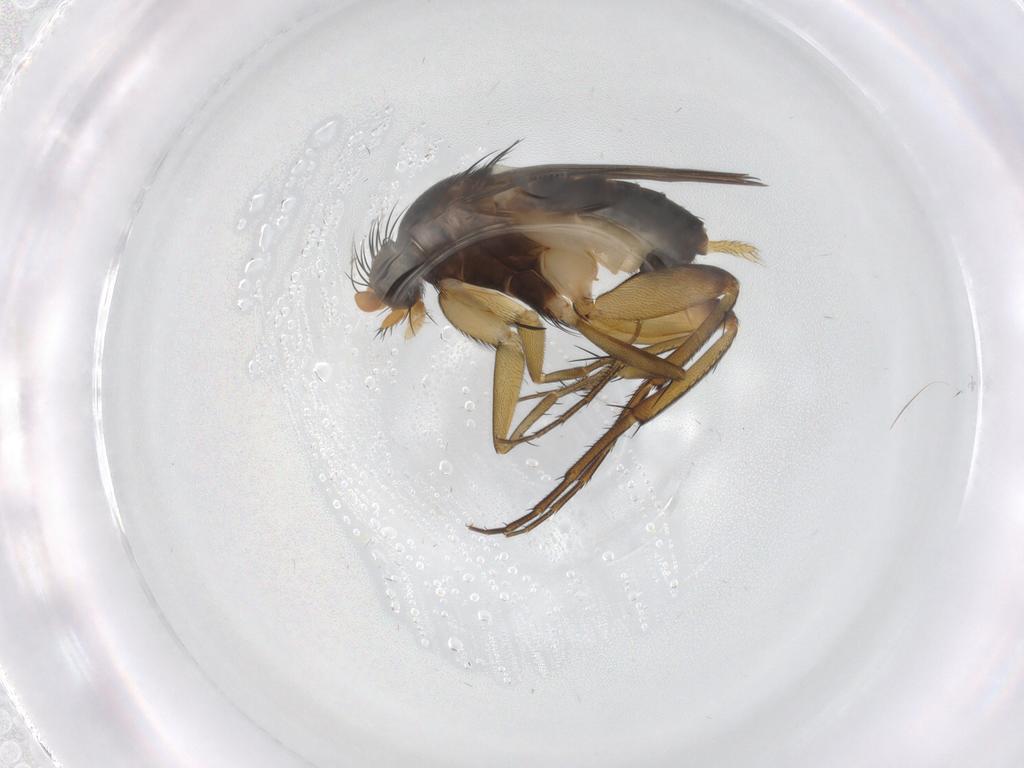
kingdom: Animalia
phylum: Arthropoda
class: Insecta
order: Diptera
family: Phoridae
